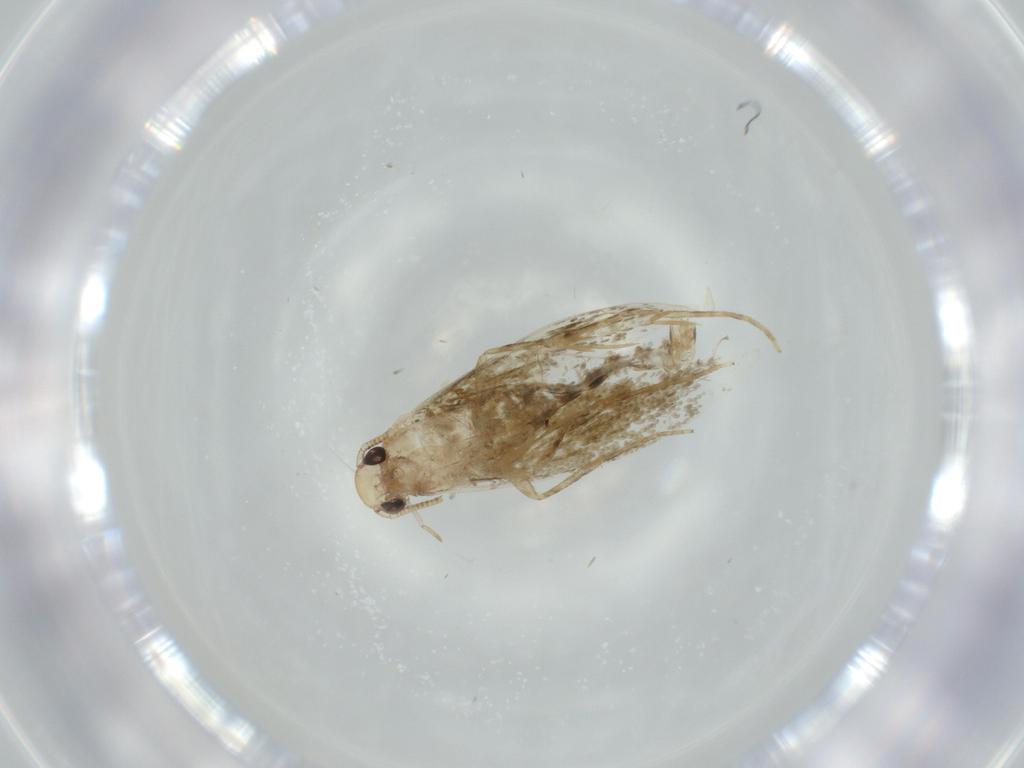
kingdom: Animalia
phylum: Arthropoda
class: Insecta
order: Lepidoptera
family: Tineidae
